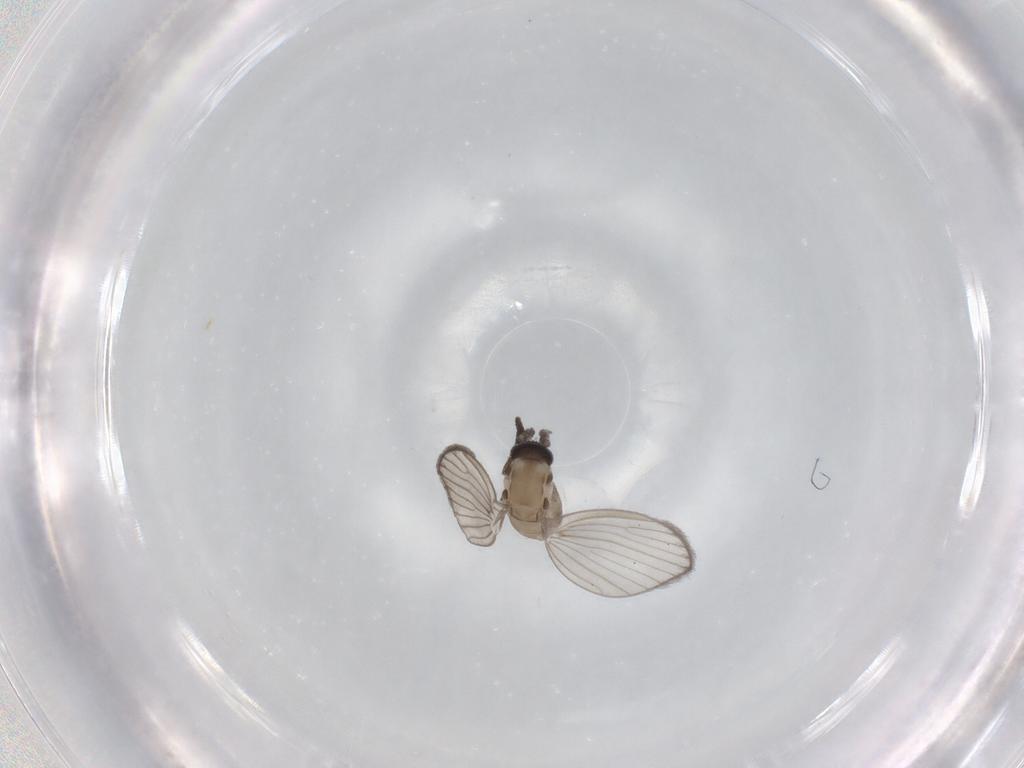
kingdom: Animalia
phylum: Arthropoda
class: Insecta
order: Diptera
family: Psychodidae
